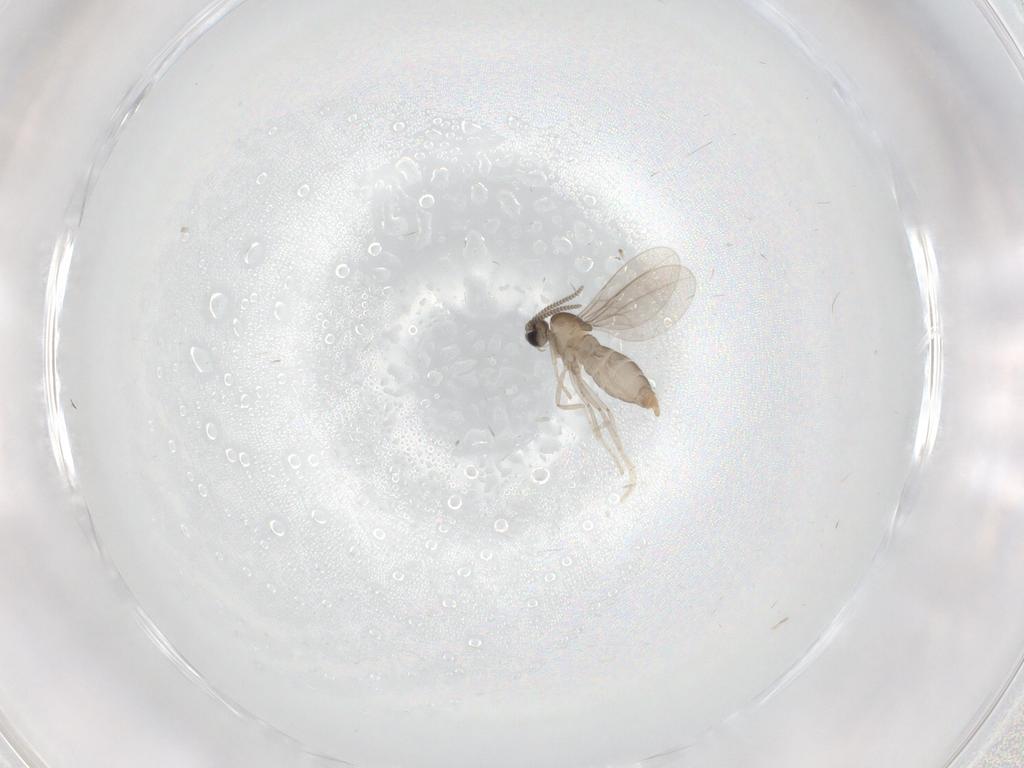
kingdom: Animalia
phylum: Arthropoda
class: Insecta
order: Diptera
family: Cecidomyiidae
